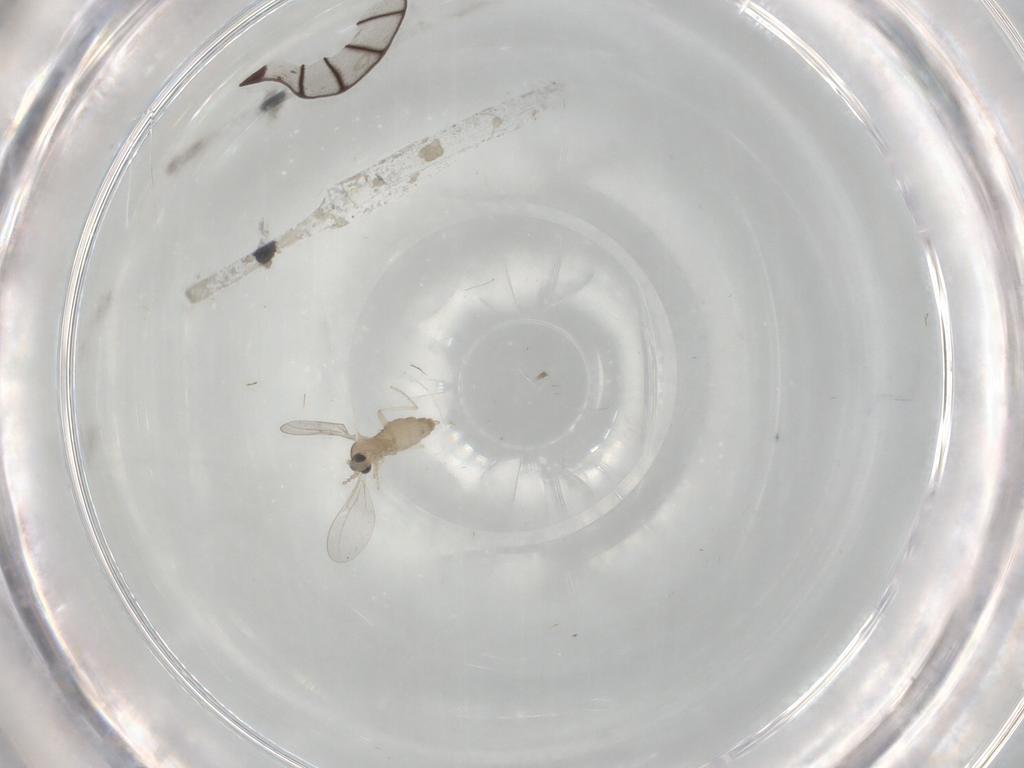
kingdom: Animalia
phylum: Arthropoda
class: Insecta
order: Diptera
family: Cecidomyiidae
